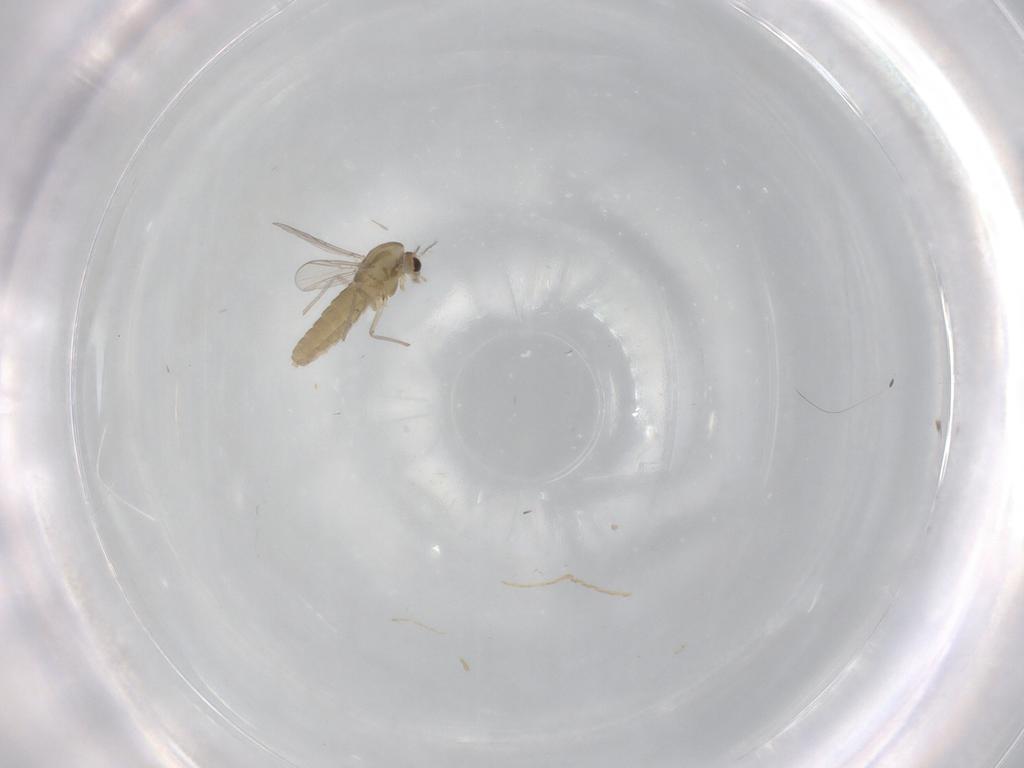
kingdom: Animalia
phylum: Arthropoda
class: Insecta
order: Diptera
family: Chironomidae
